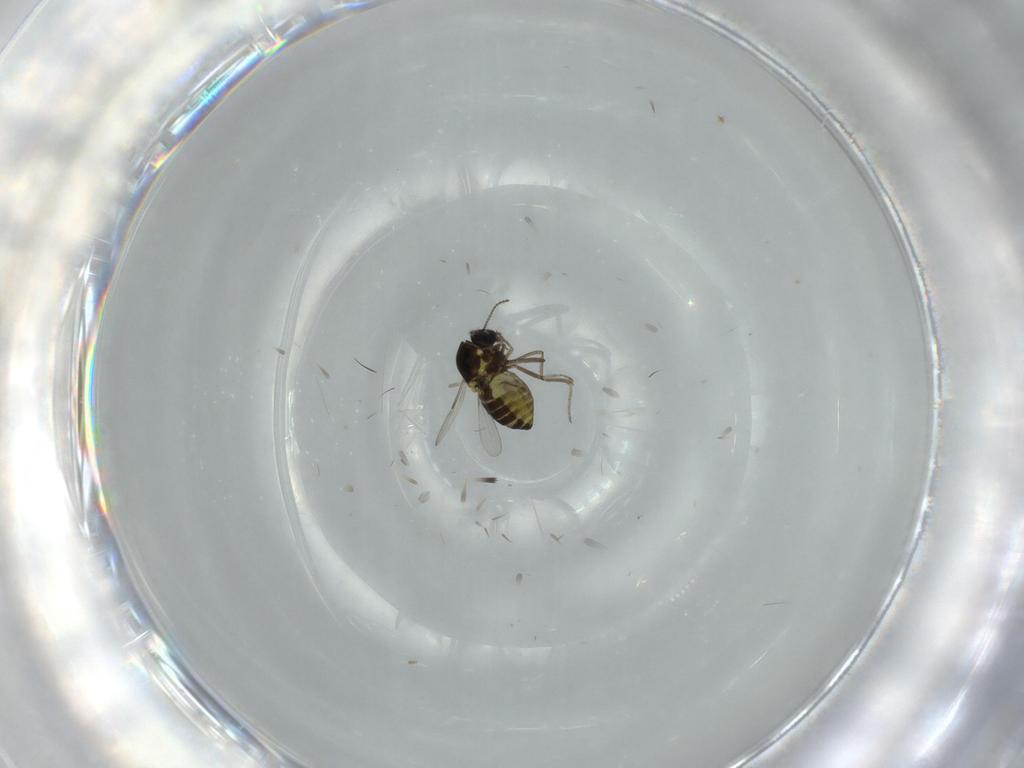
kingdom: Animalia
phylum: Arthropoda
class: Insecta
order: Diptera
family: Ceratopogonidae
